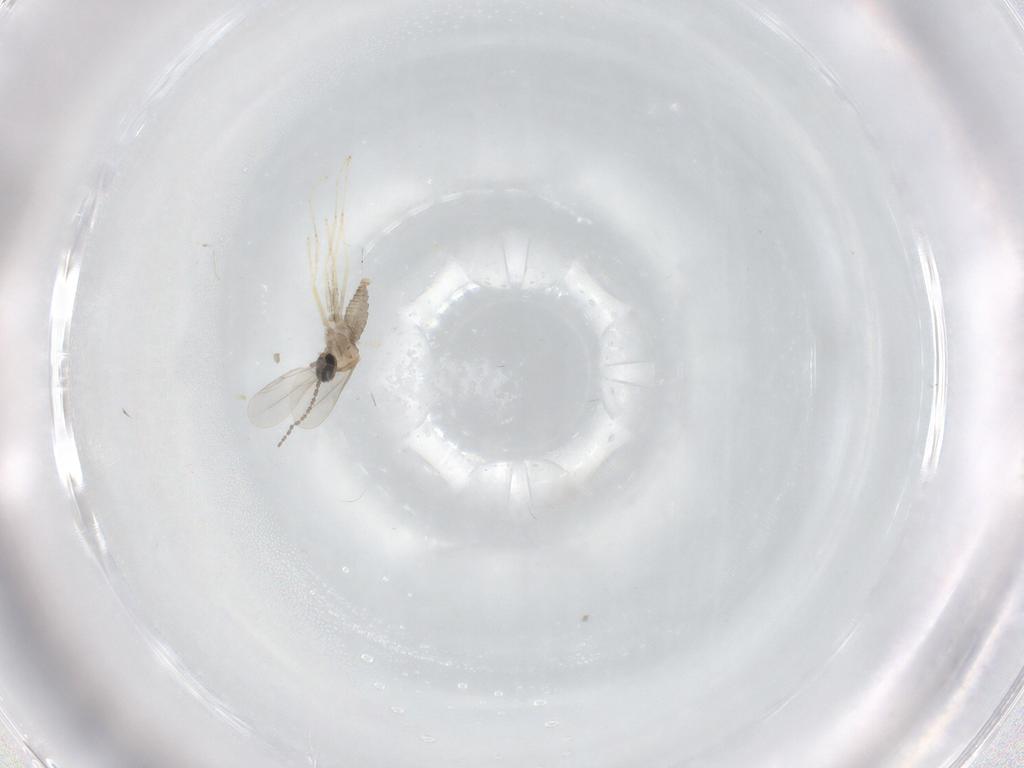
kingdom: Animalia
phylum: Arthropoda
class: Insecta
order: Diptera
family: Cecidomyiidae
